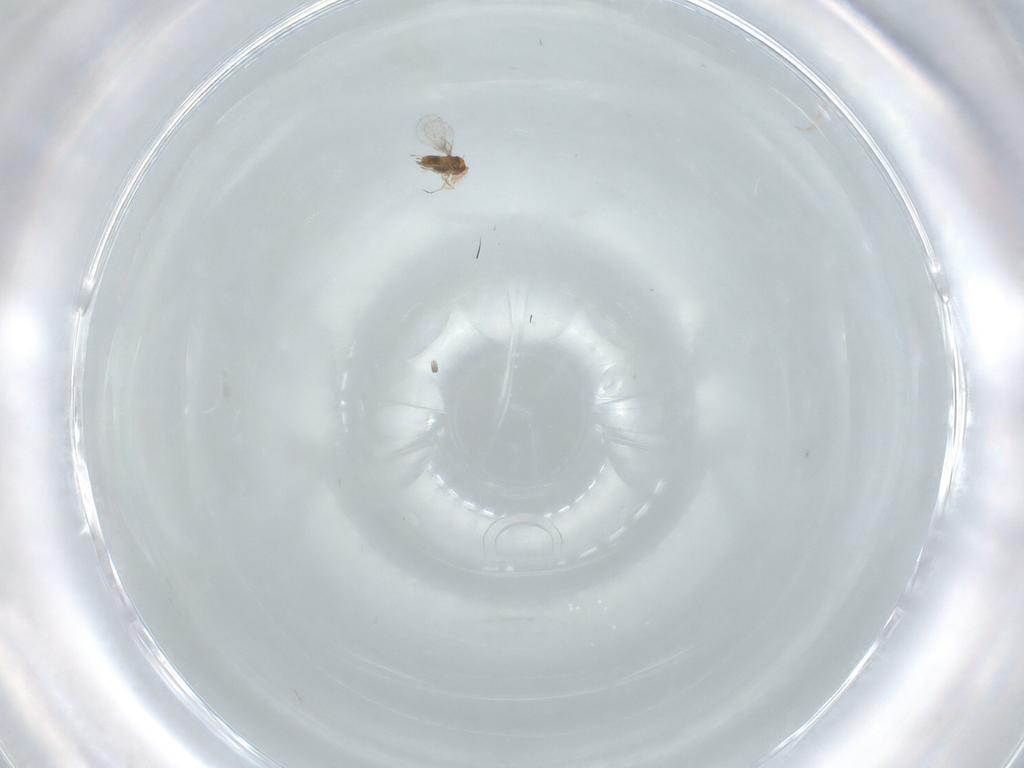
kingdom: Animalia
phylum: Arthropoda
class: Insecta
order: Hymenoptera
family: Trichogrammatidae
